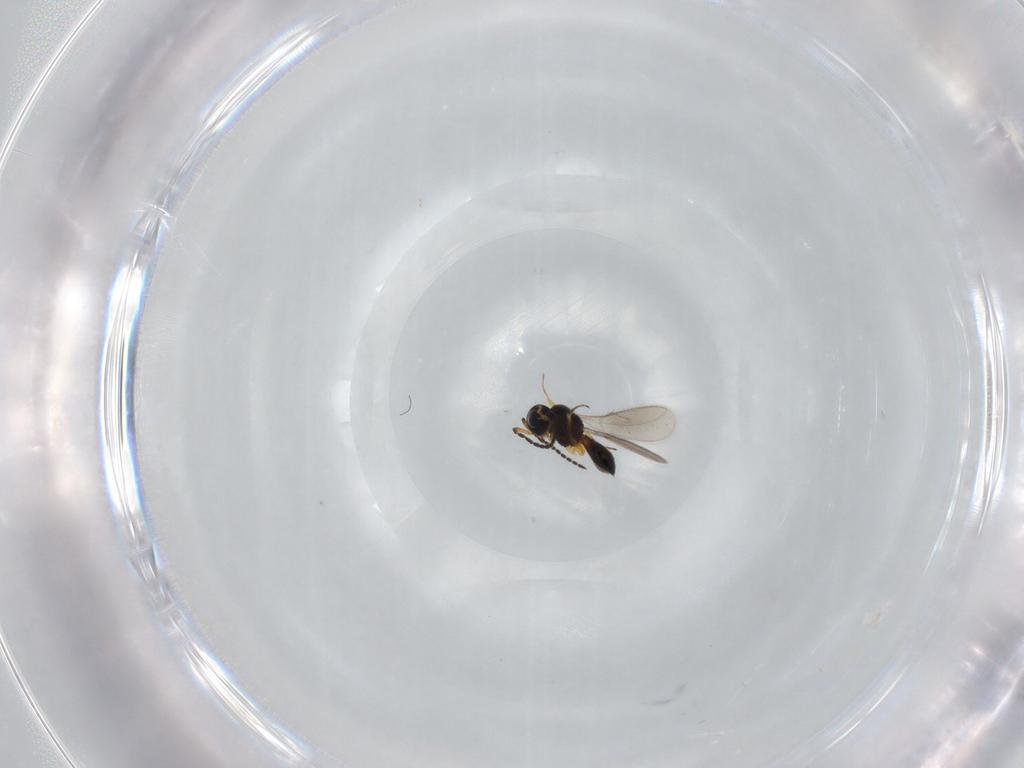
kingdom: Animalia
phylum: Arthropoda
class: Insecta
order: Hymenoptera
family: Scelionidae
